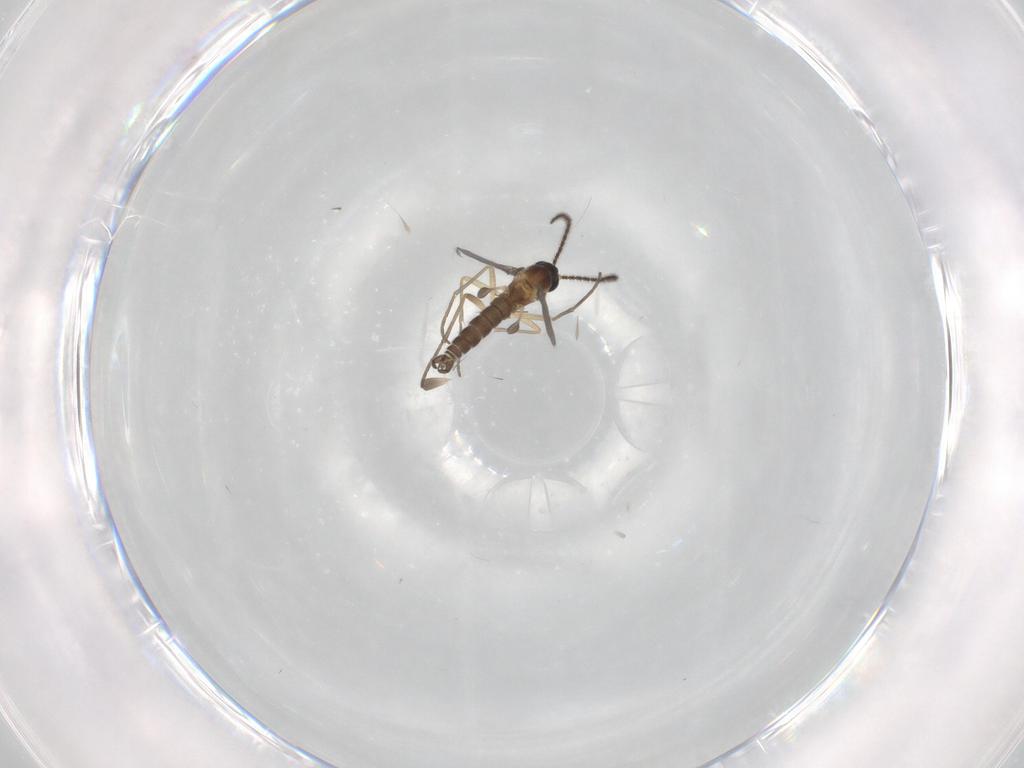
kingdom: Animalia
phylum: Arthropoda
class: Insecta
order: Diptera
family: Sciaridae
